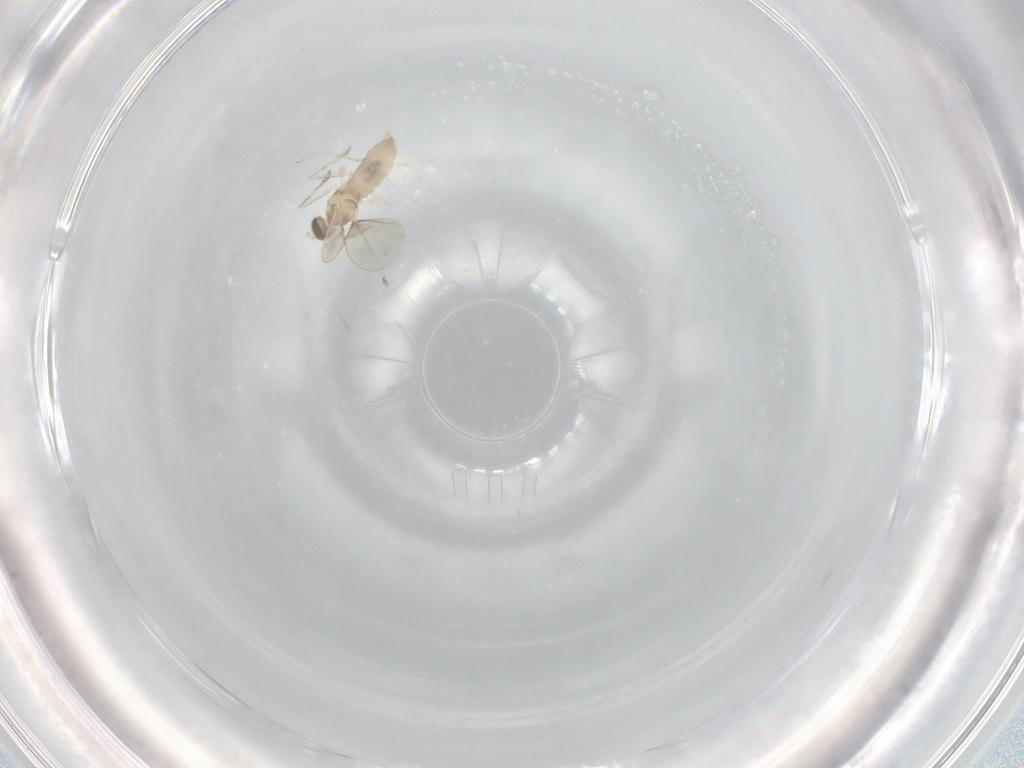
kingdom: Animalia
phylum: Arthropoda
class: Insecta
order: Diptera
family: Cecidomyiidae
